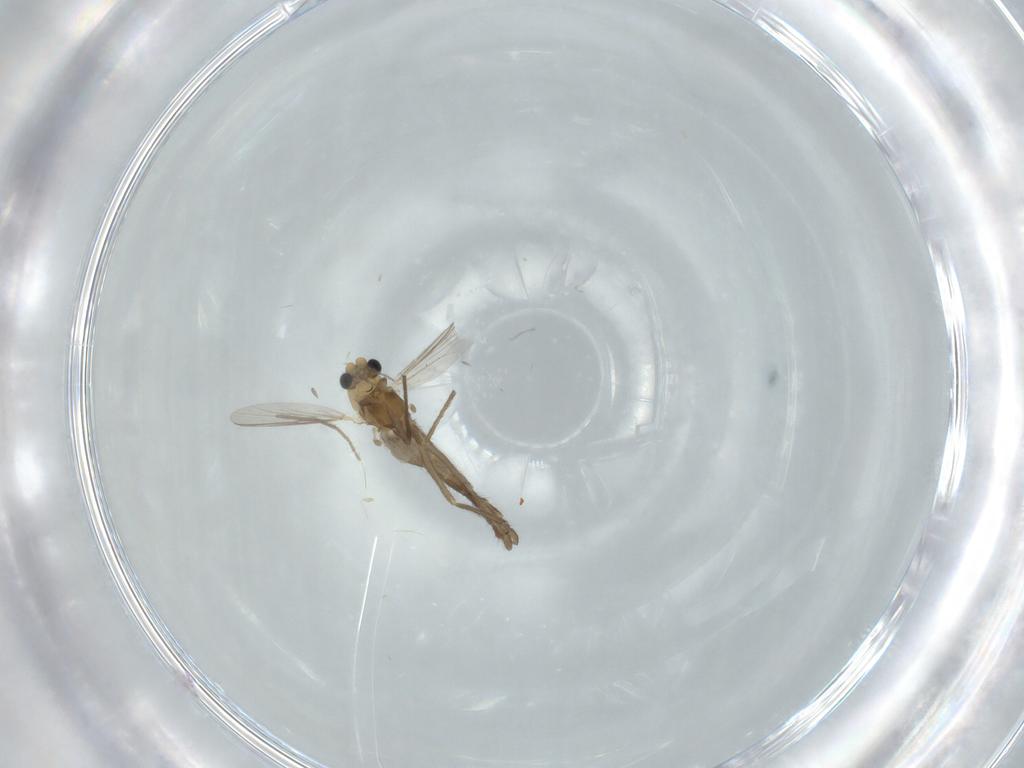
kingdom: Animalia
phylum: Arthropoda
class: Insecta
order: Diptera
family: Chironomidae
